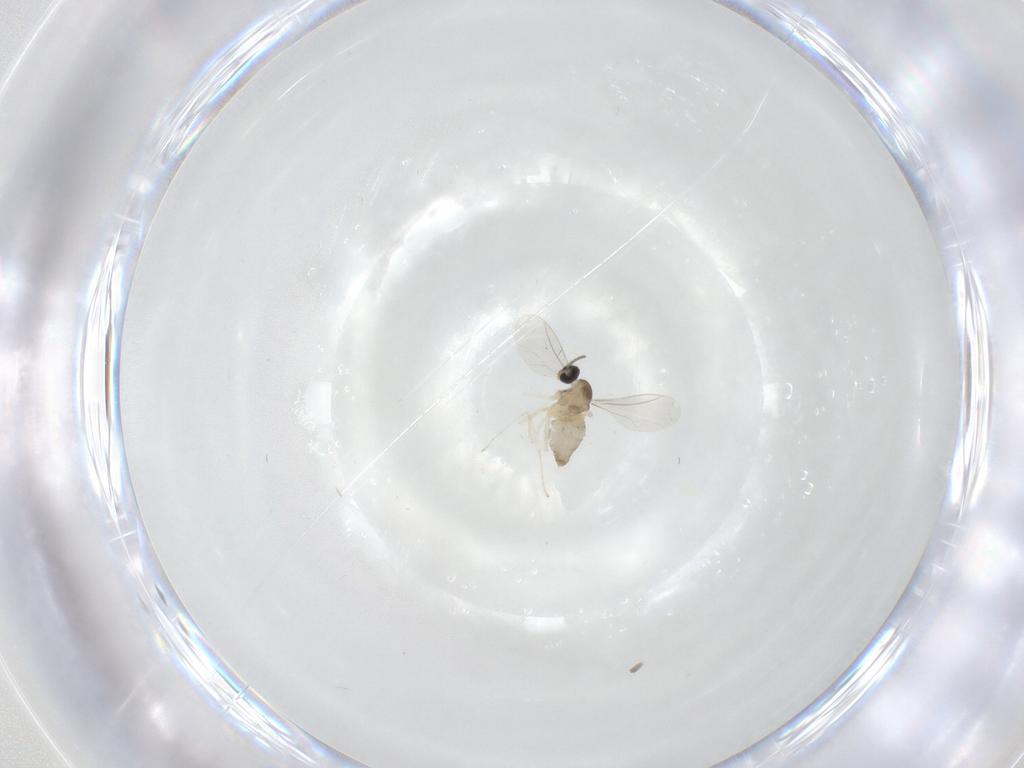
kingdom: Animalia
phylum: Arthropoda
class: Insecta
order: Diptera
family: Cecidomyiidae
